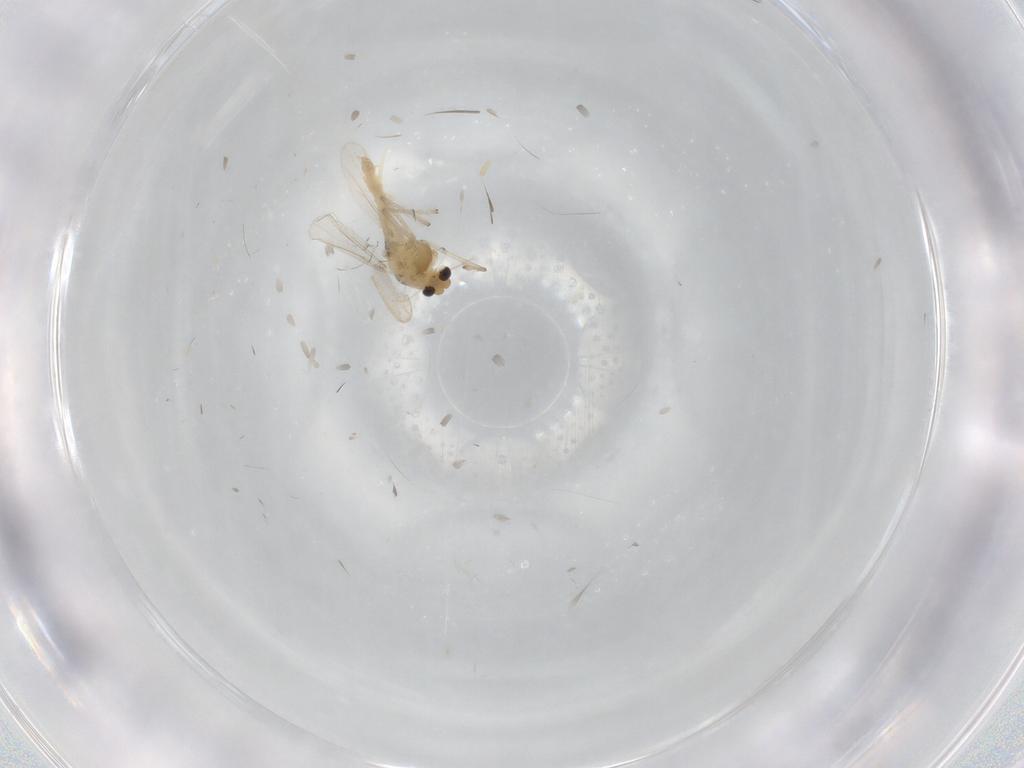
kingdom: Animalia
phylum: Arthropoda
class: Insecta
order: Diptera
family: Chironomidae
